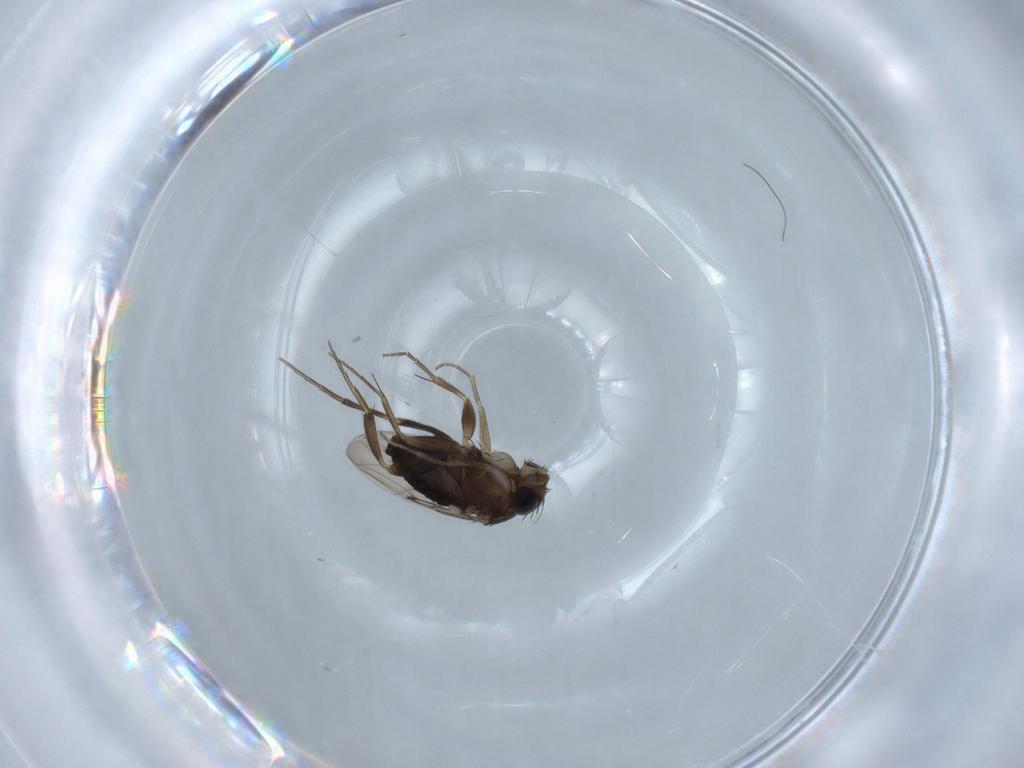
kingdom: Animalia
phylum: Arthropoda
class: Insecta
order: Diptera
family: Phoridae
